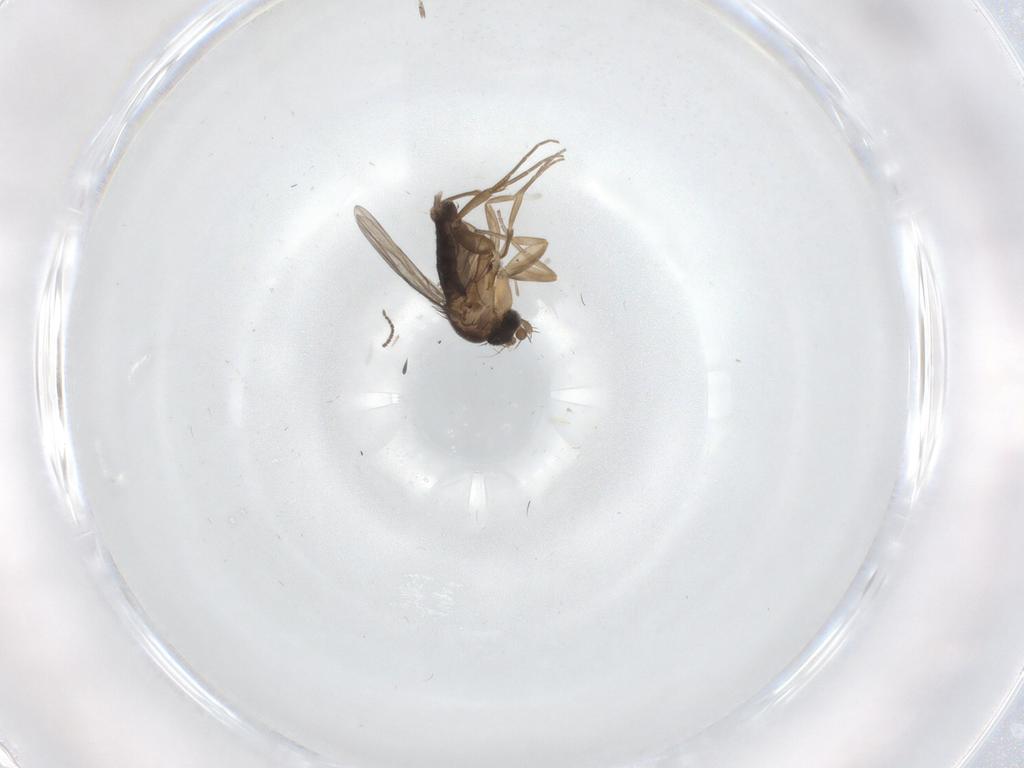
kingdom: Animalia
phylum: Arthropoda
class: Insecta
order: Diptera
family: Phoridae
